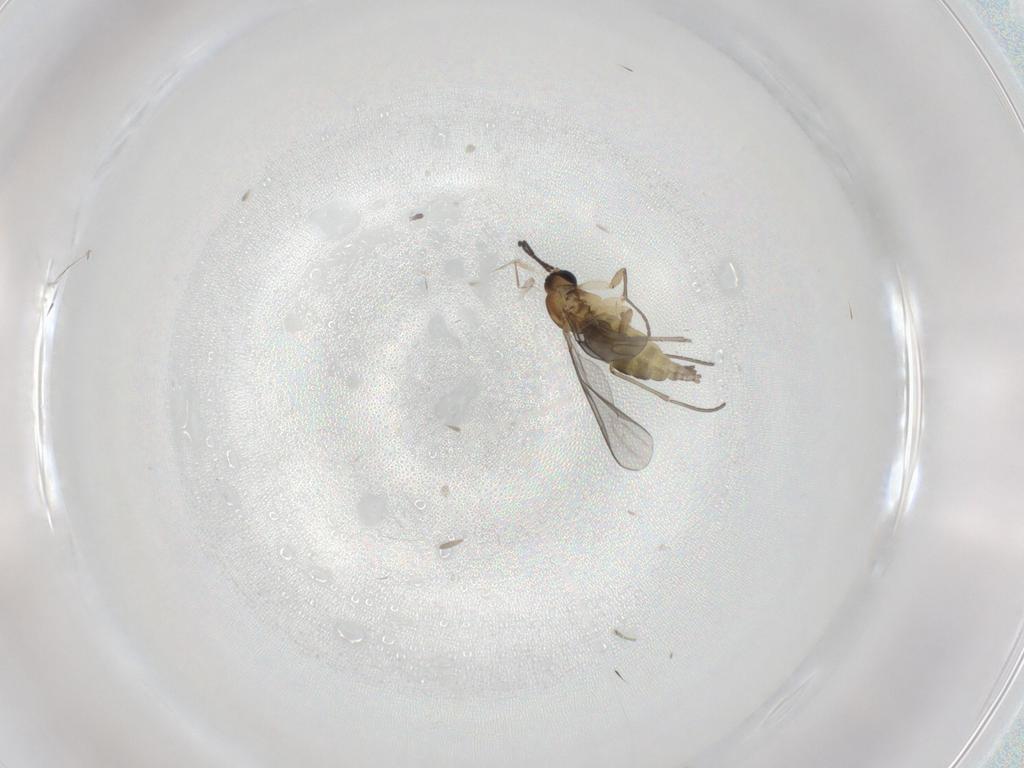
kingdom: Animalia
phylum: Arthropoda
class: Insecta
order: Diptera
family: Sciaridae
